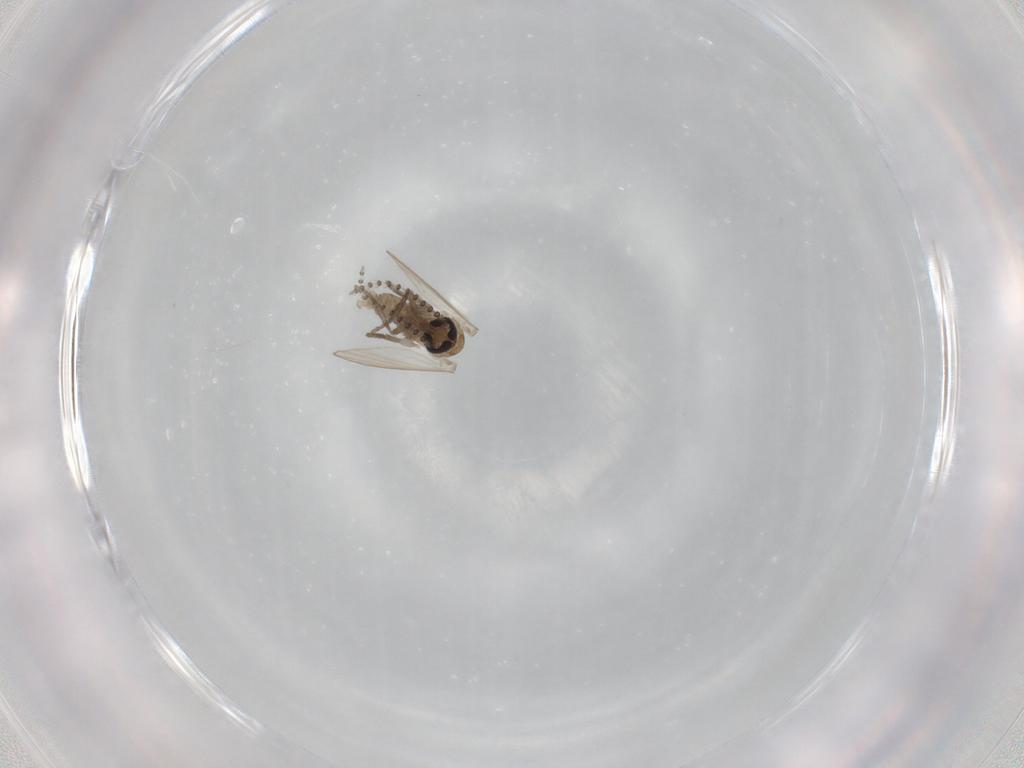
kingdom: Animalia
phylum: Arthropoda
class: Insecta
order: Diptera
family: Psychodidae
